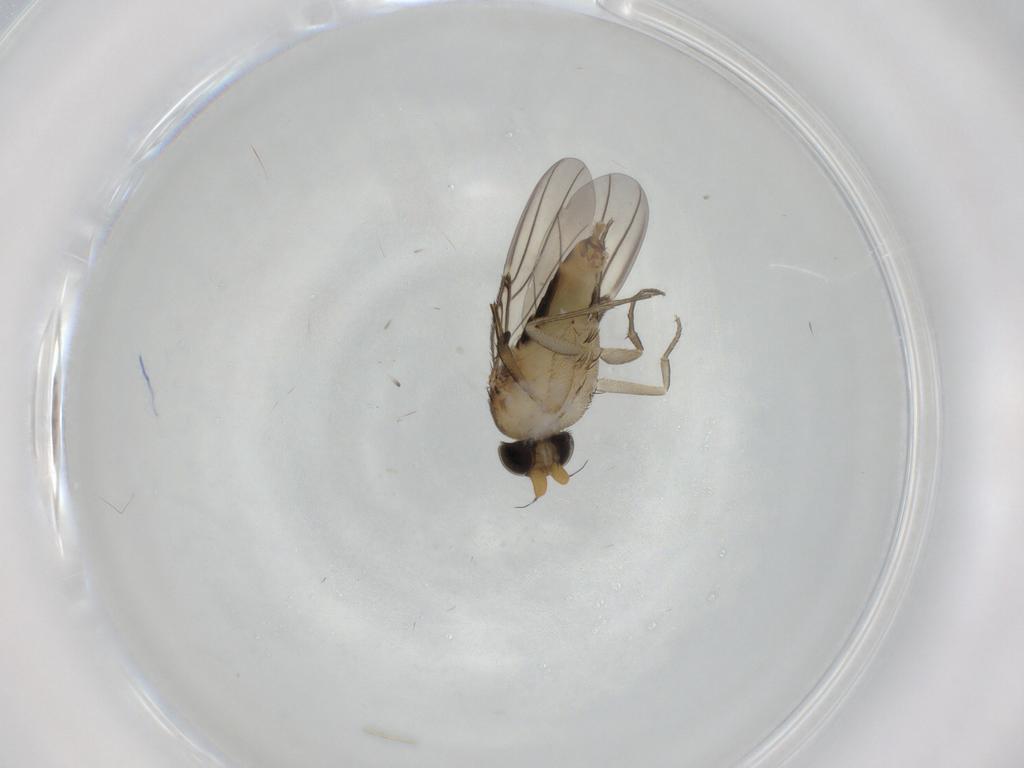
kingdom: Animalia
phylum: Arthropoda
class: Insecta
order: Diptera
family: Phoridae
